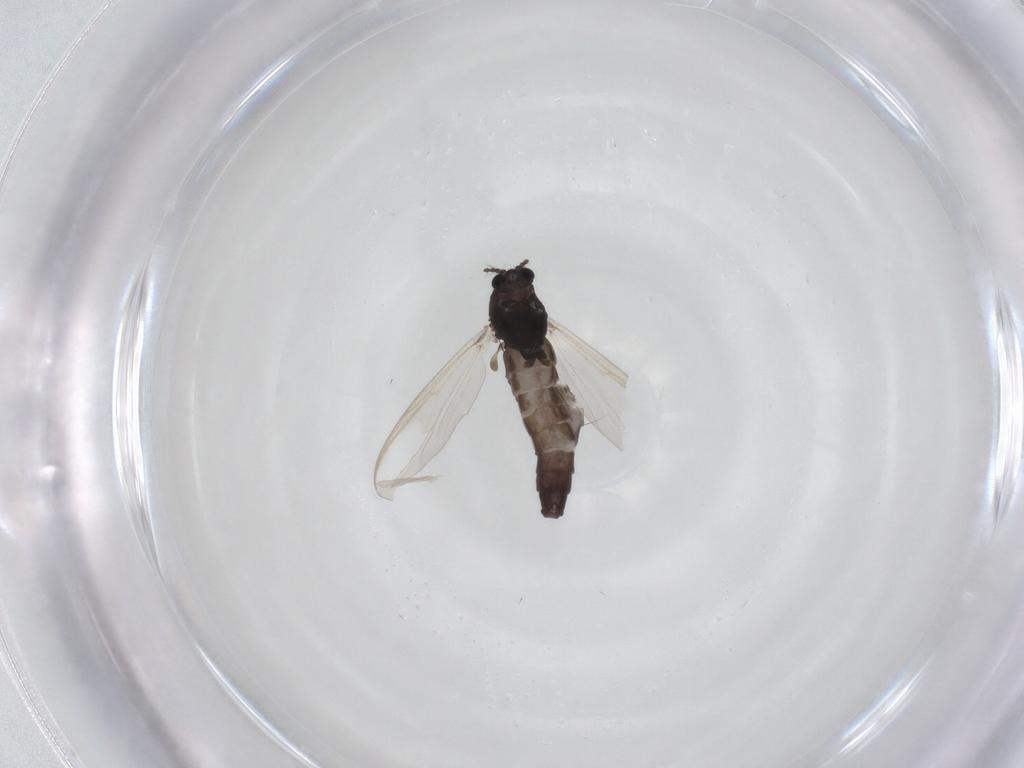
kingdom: Animalia
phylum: Arthropoda
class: Insecta
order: Diptera
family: Chironomidae
